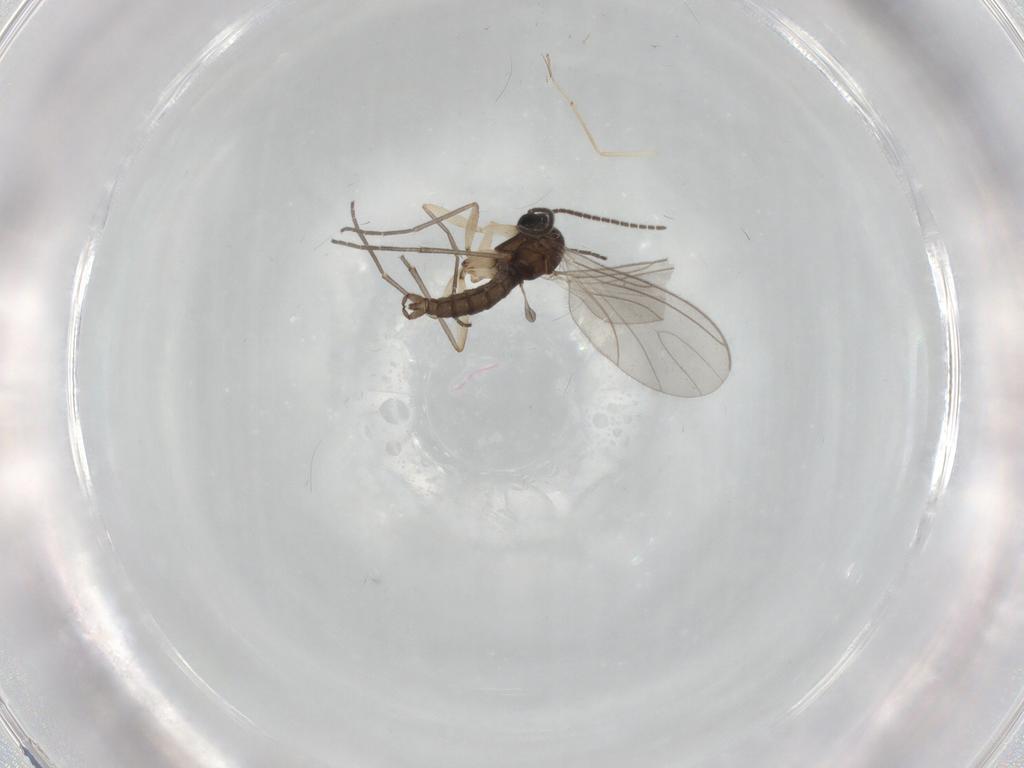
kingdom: Animalia
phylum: Arthropoda
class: Insecta
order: Diptera
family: Sciaridae
